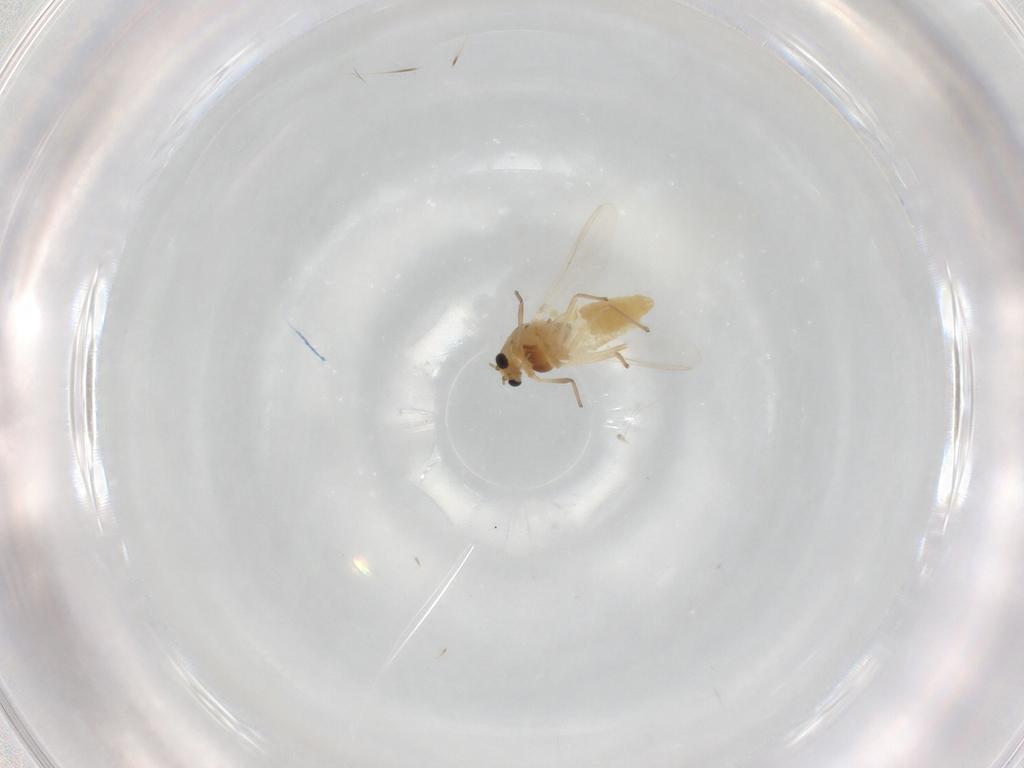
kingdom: Animalia
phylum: Arthropoda
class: Insecta
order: Diptera
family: Chironomidae
